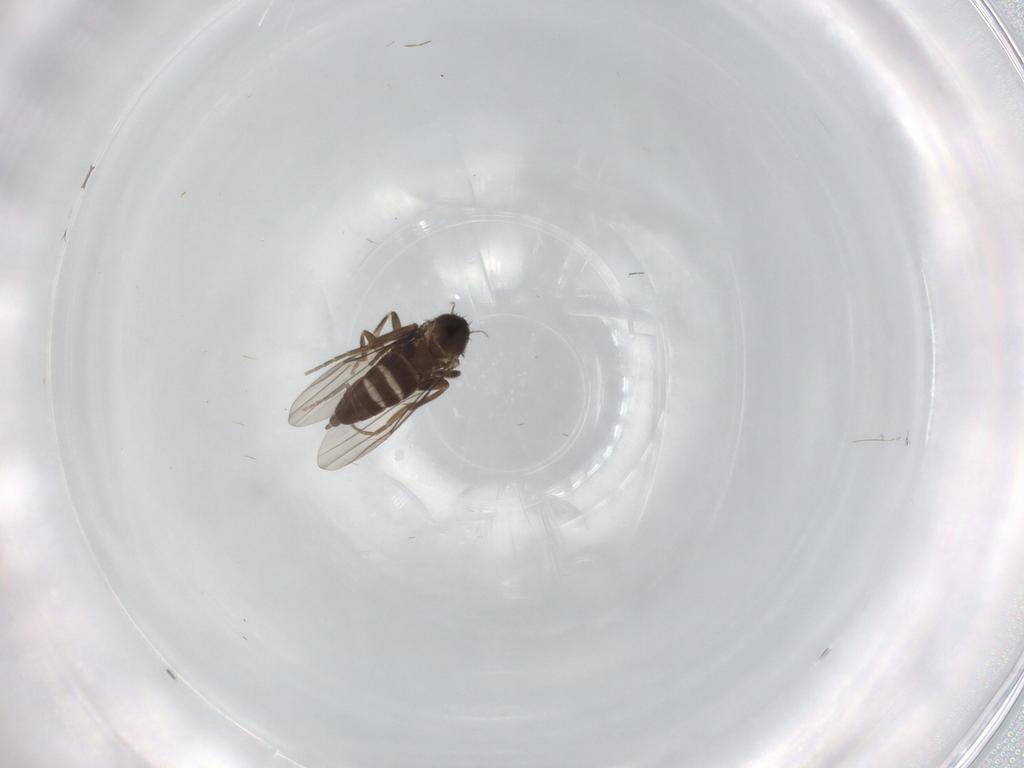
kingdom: Animalia
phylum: Arthropoda
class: Insecta
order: Diptera
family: Sciaridae
